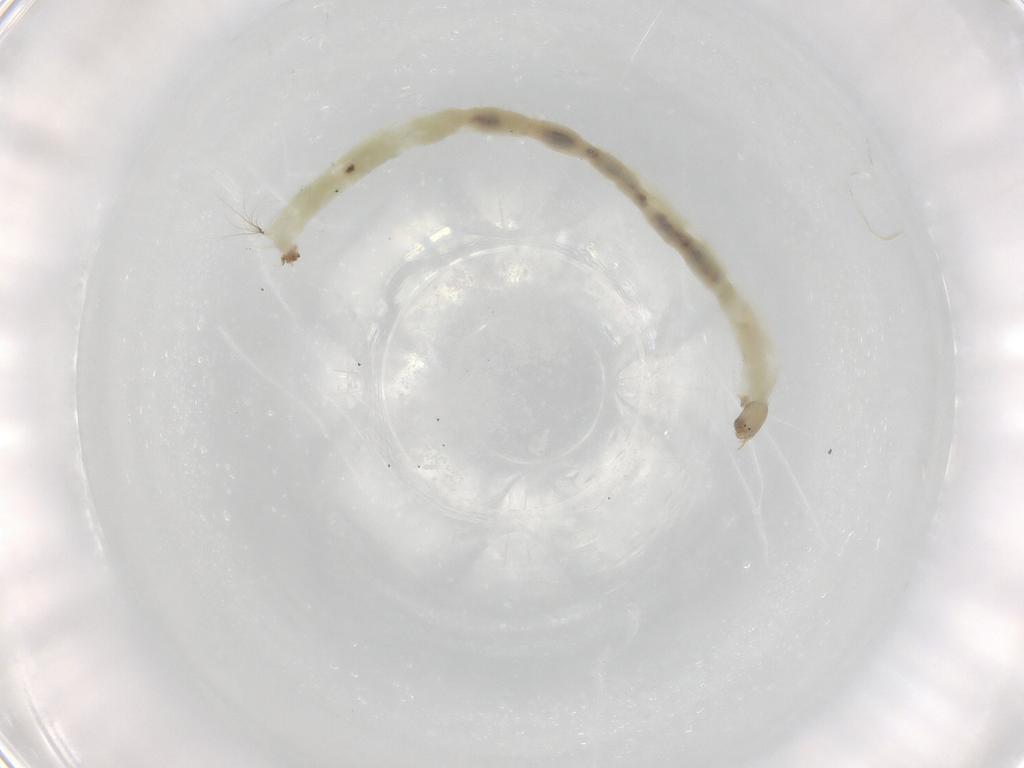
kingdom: Animalia
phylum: Arthropoda
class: Insecta
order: Diptera
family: Chironomidae
